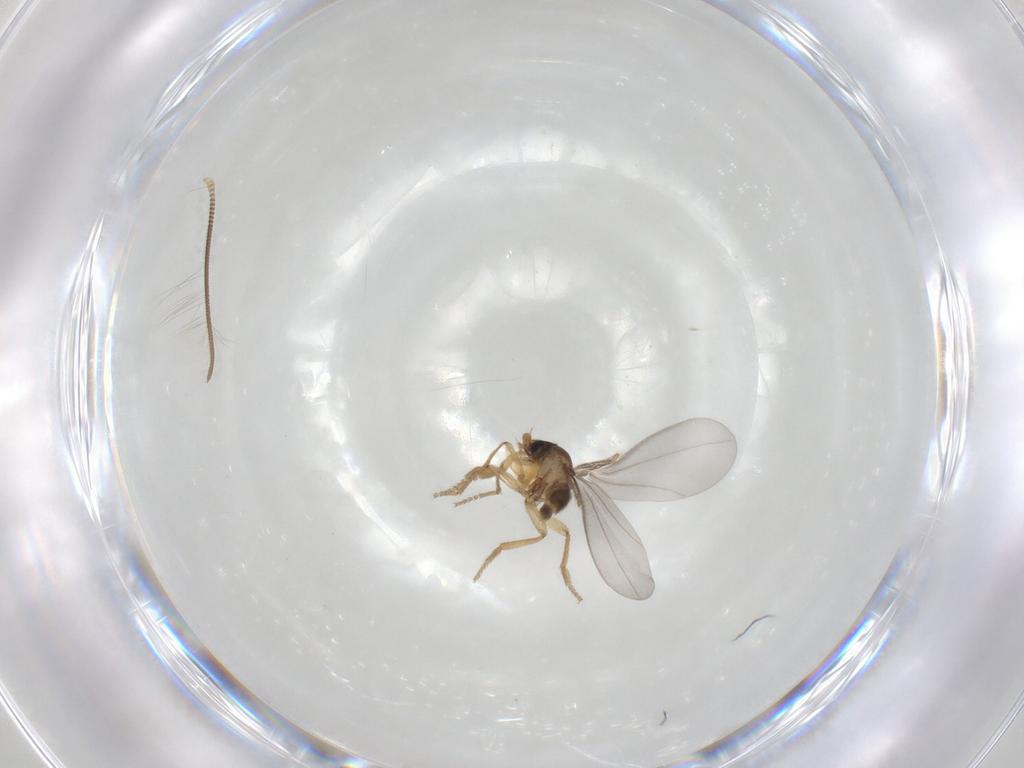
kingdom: Animalia
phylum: Arthropoda
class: Insecta
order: Diptera
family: Phoridae
